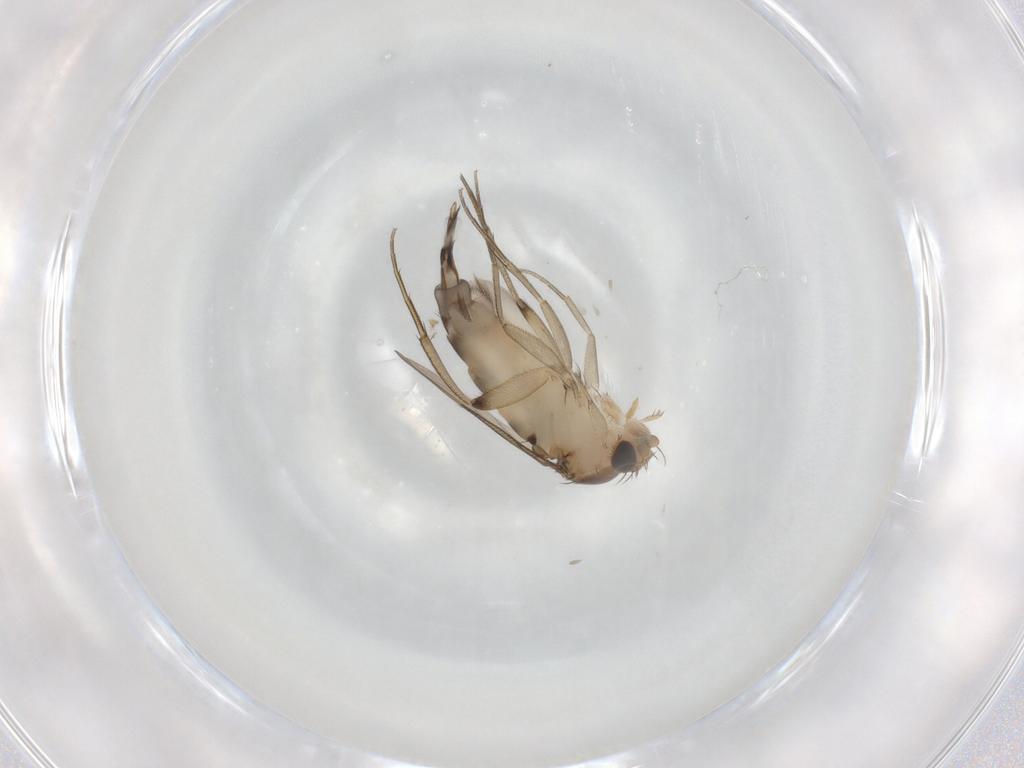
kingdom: Animalia
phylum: Arthropoda
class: Insecta
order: Diptera
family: Phoridae
